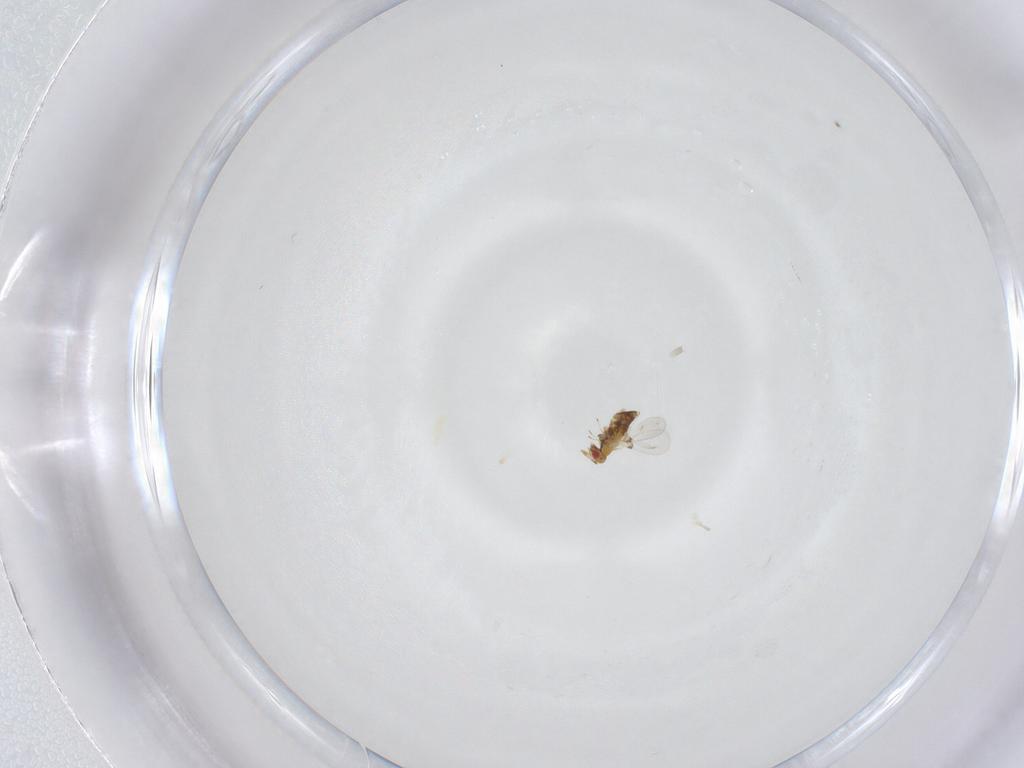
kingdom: Animalia
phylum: Arthropoda
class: Insecta
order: Hymenoptera
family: Trichogrammatidae
